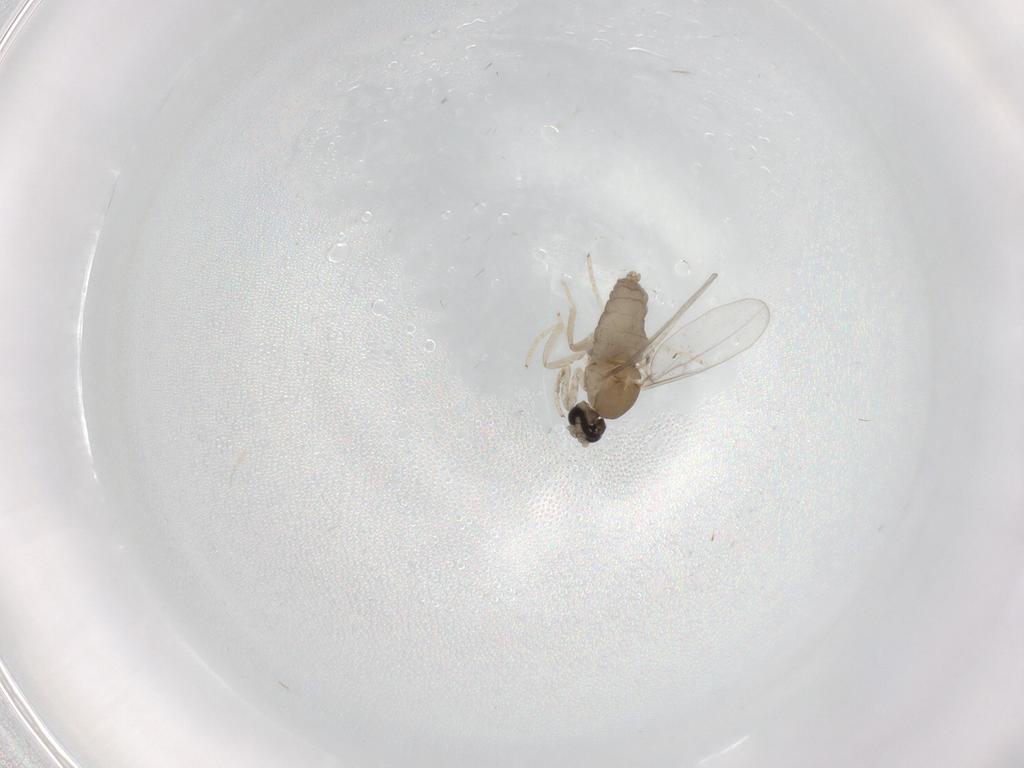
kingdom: Animalia
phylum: Arthropoda
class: Insecta
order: Diptera
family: Cecidomyiidae
